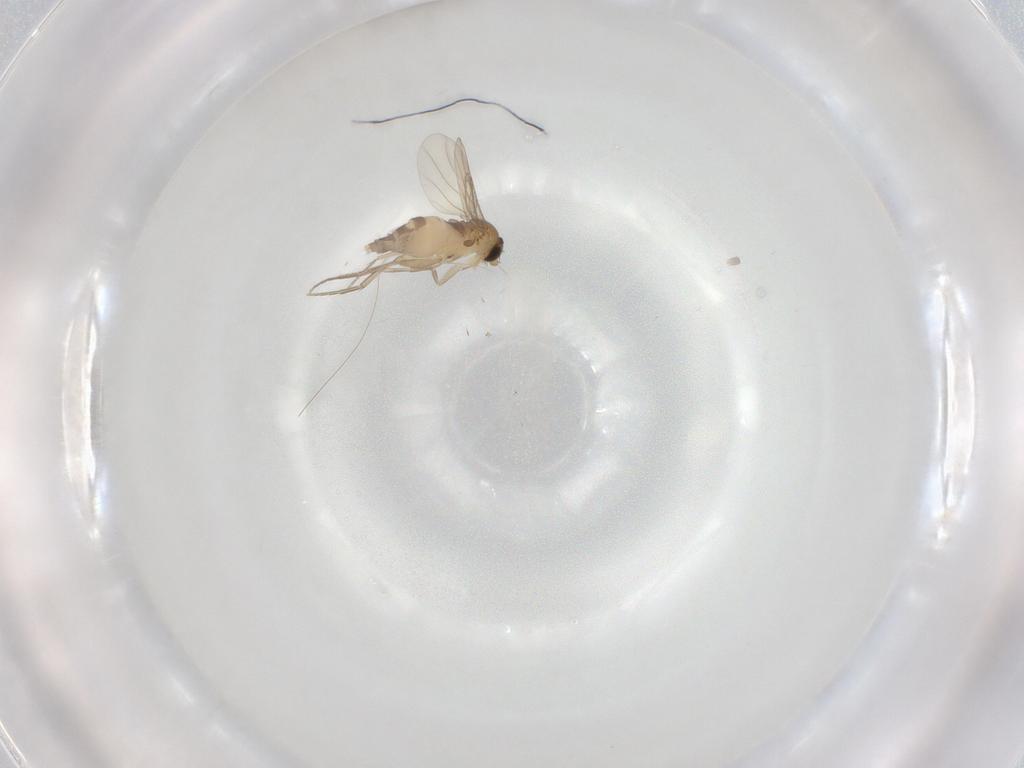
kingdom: Animalia
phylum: Arthropoda
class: Insecta
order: Diptera
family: Phoridae
